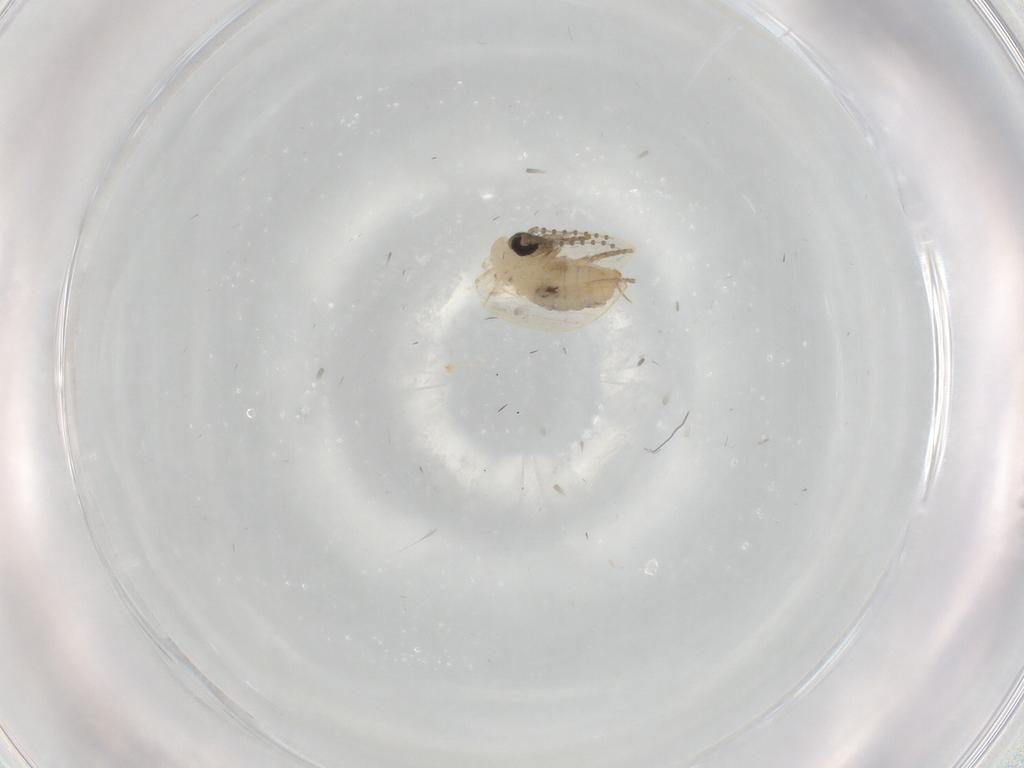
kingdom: Animalia
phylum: Arthropoda
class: Insecta
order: Diptera
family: Psychodidae
